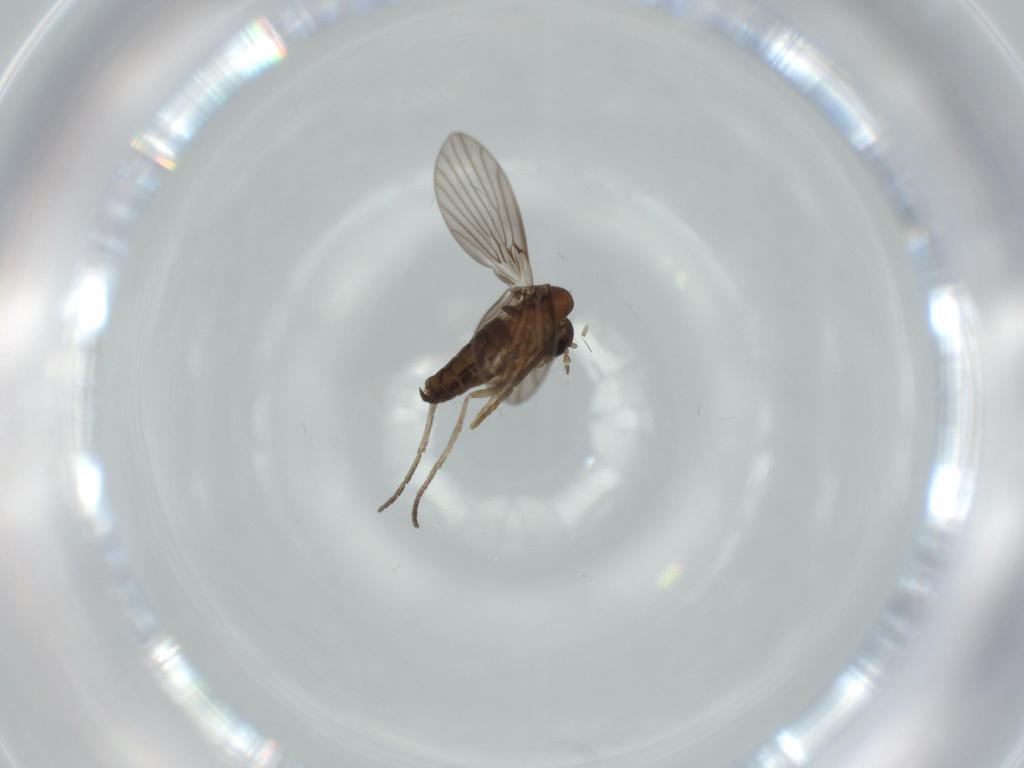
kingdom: Animalia
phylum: Arthropoda
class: Insecta
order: Diptera
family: Psychodidae
